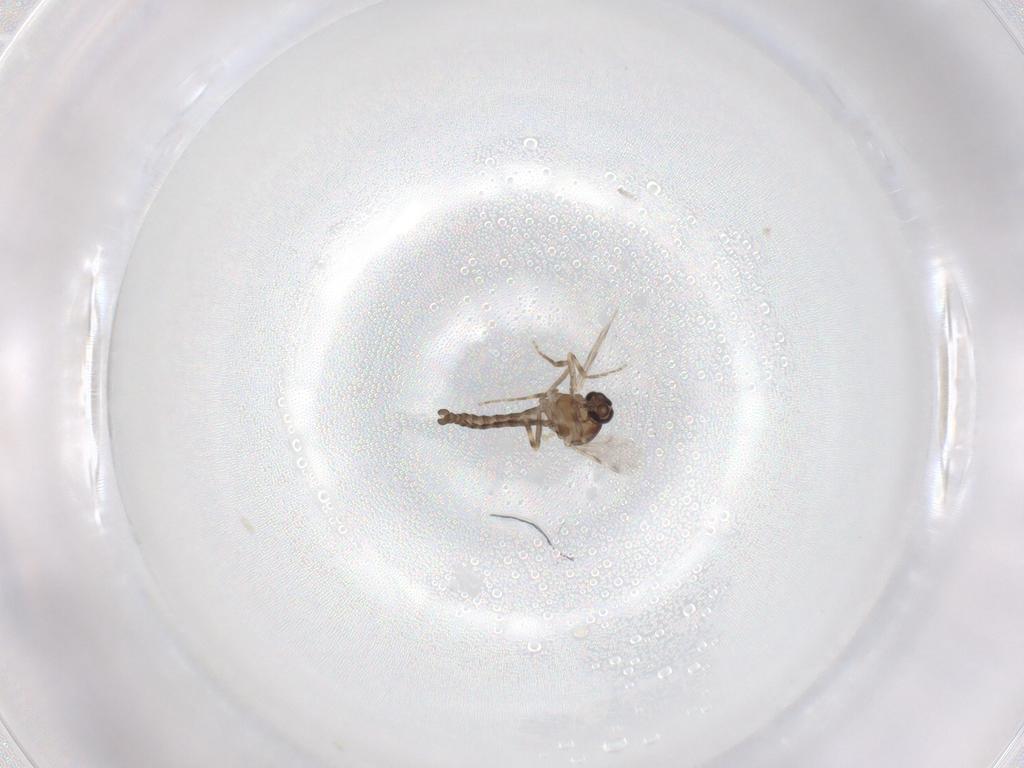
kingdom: Animalia
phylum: Arthropoda
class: Insecta
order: Diptera
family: Ceratopogonidae
